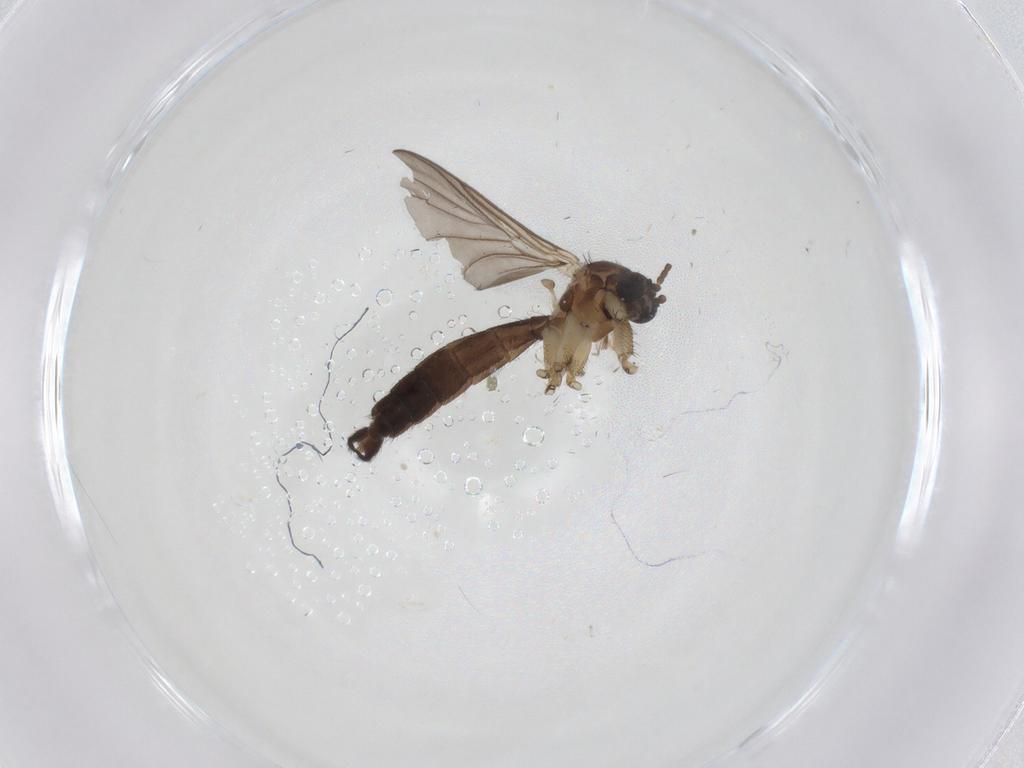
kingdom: Animalia
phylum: Arthropoda
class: Insecta
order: Diptera
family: Keroplatidae
